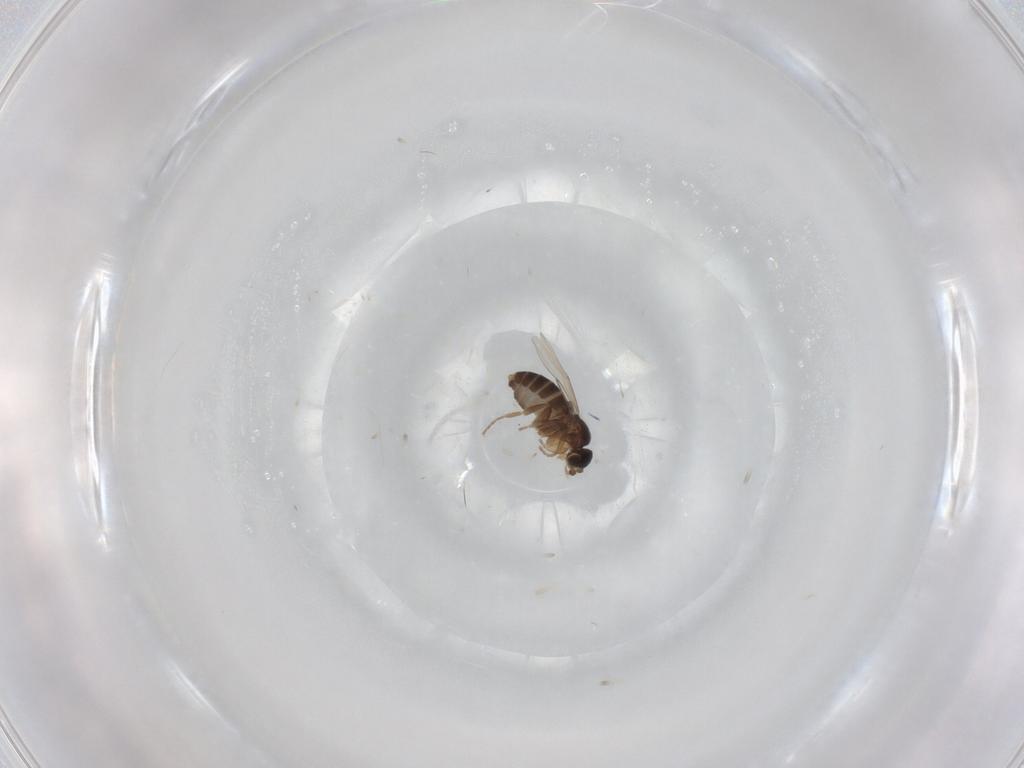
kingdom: Animalia
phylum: Arthropoda
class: Insecta
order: Diptera
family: Phoridae
